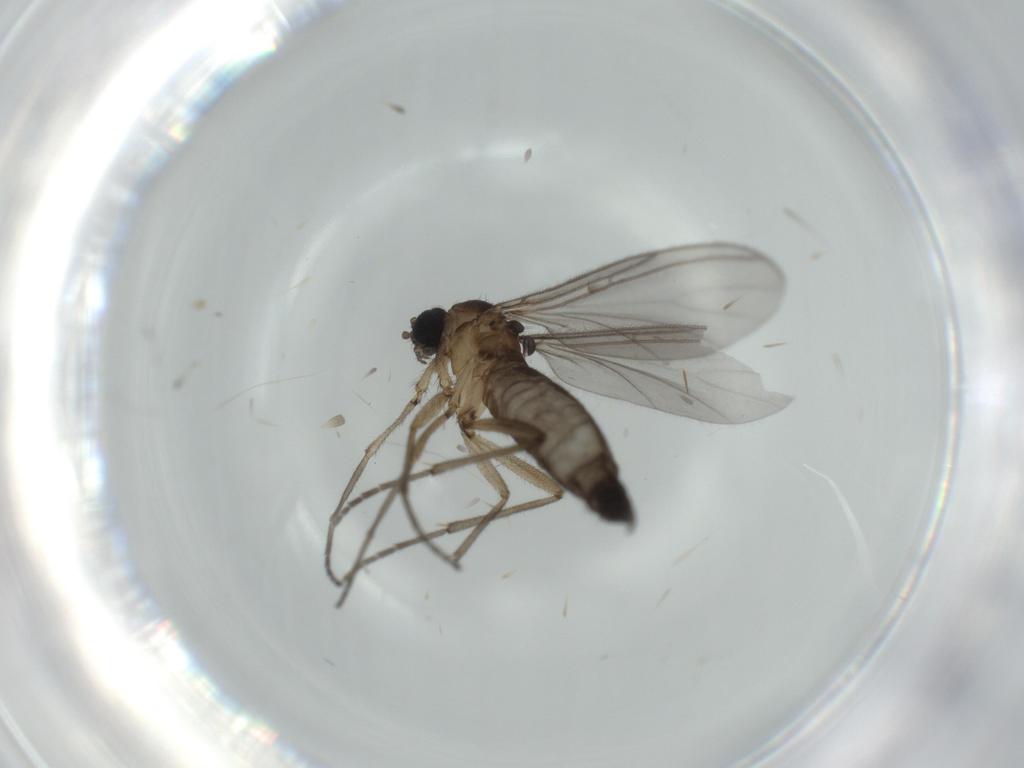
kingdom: Animalia
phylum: Arthropoda
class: Insecta
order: Diptera
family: Sciaridae
